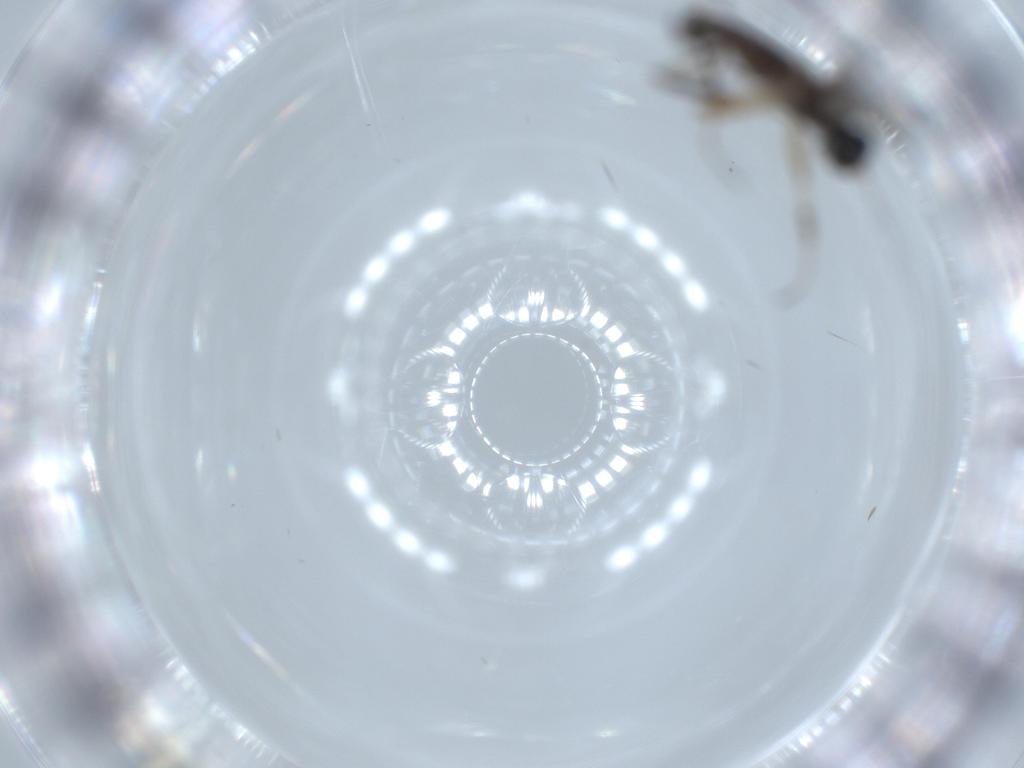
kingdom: Animalia
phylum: Arthropoda
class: Insecta
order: Diptera
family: Hybotidae
